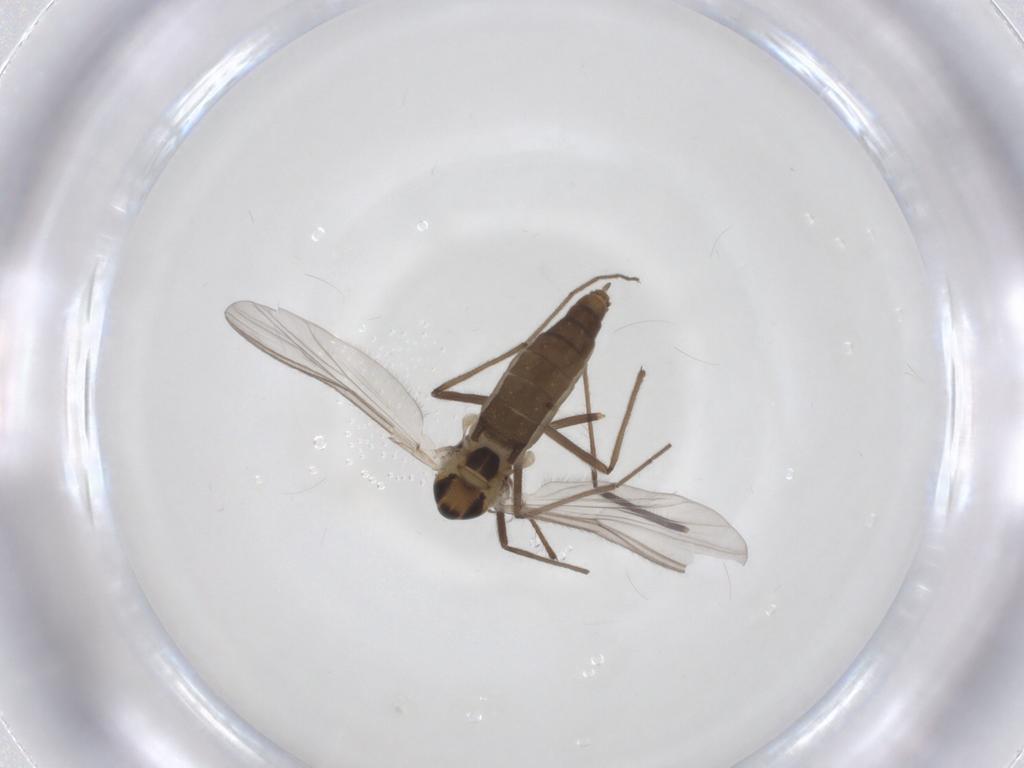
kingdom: Animalia
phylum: Arthropoda
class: Insecta
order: Diptera
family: Chironomidae
